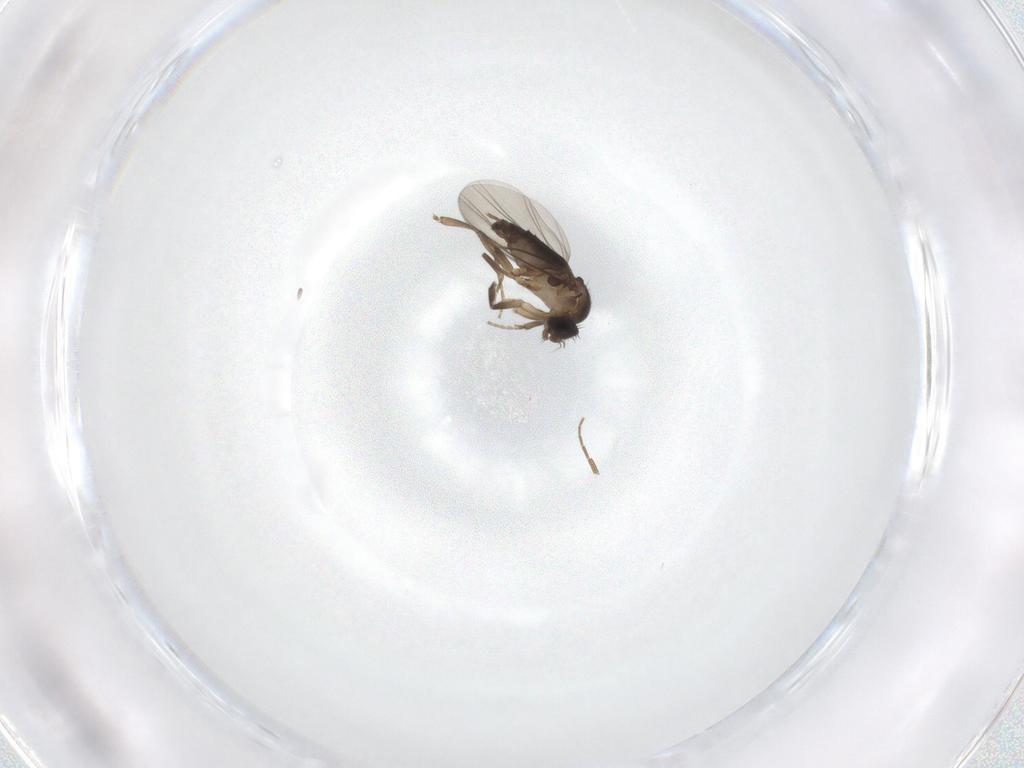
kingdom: Animalia
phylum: Arthropoda
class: Insecta
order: Diptera
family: Phoridae
